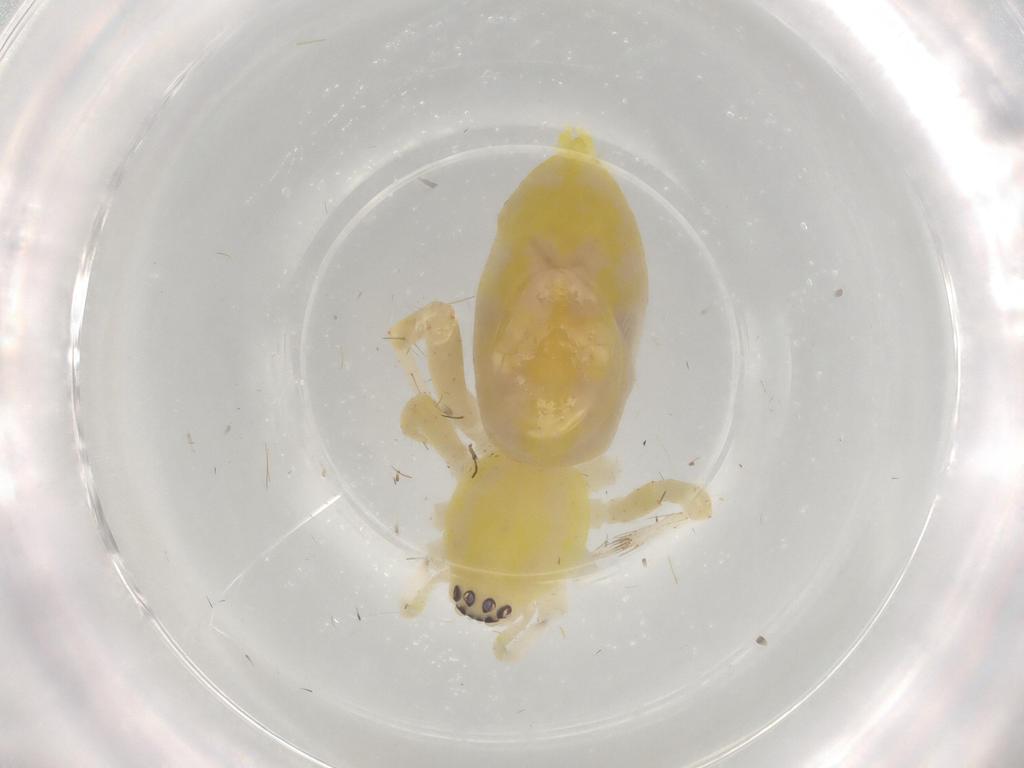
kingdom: Animalia
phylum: Arthropoda
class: Arachnida
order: Araneae
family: Anyphaenidae
